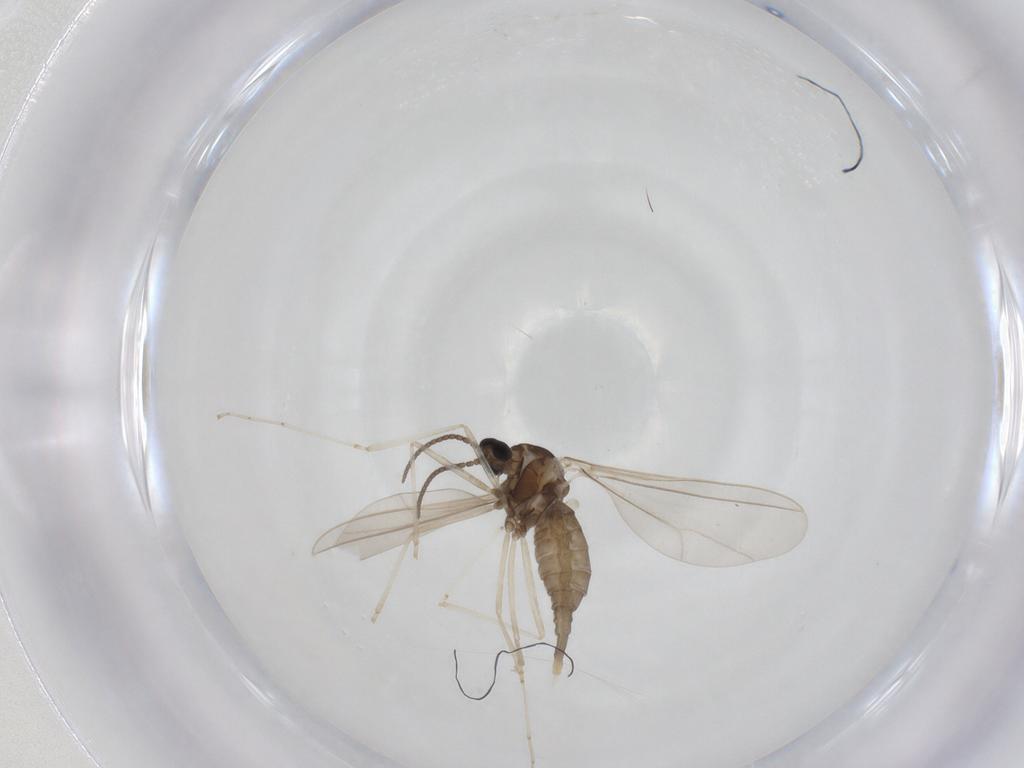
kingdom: Animalia
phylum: Arthropoda
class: Insecta
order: Diptera
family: Cecidomyiidae
